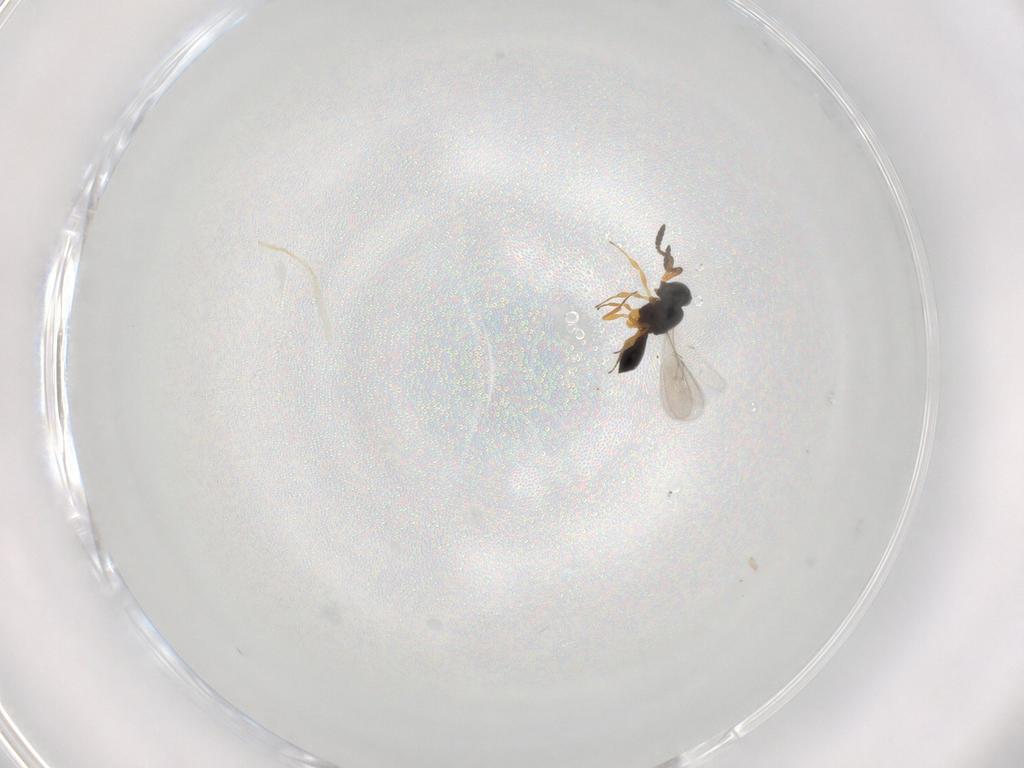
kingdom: Animalia
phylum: Arthropoda
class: Insecta
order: Hymenoptera
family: Scelionidae
